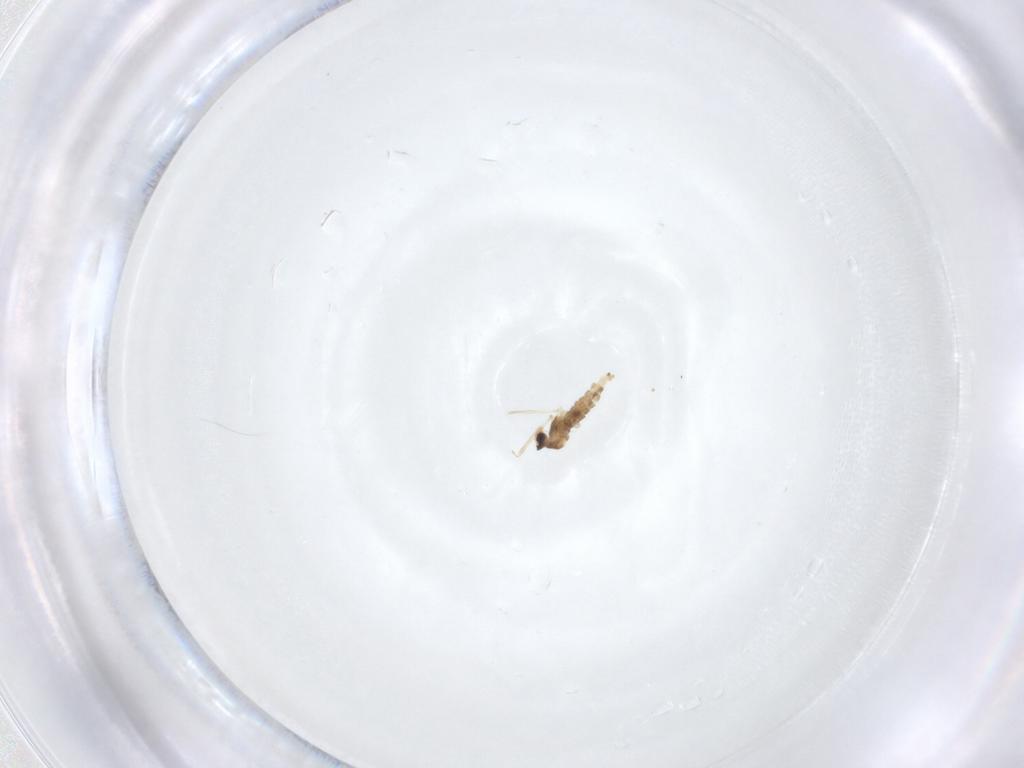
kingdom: Animalia
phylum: Arthropoda
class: Insecta
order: Diptera
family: Cecidomyiidae
